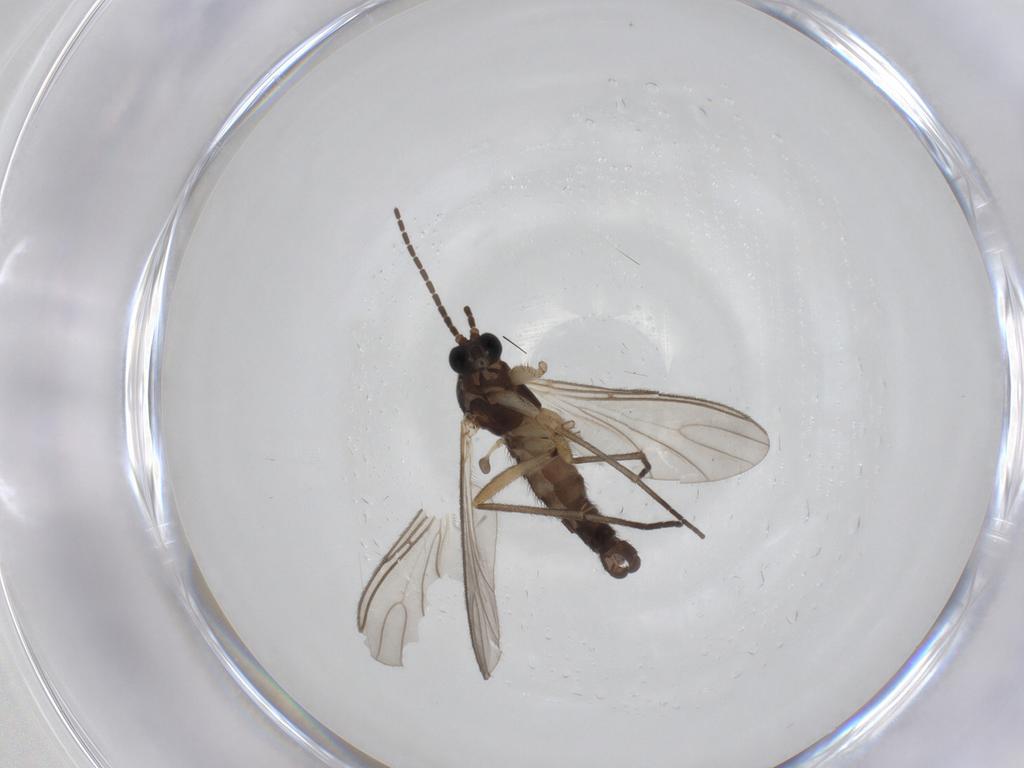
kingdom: Animalia
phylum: Arthropoda
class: Insecta
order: Diptera
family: Sciaridae
